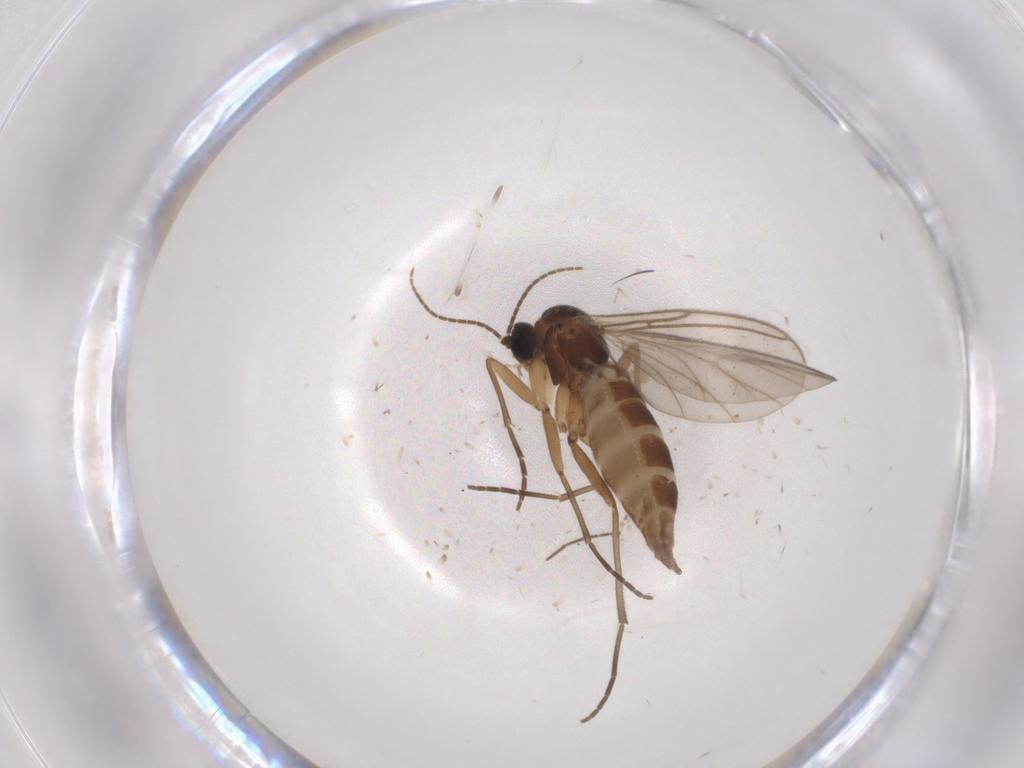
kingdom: Animalia
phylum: Arthropoda
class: Insecta
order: Diptera
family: Sciaridae
